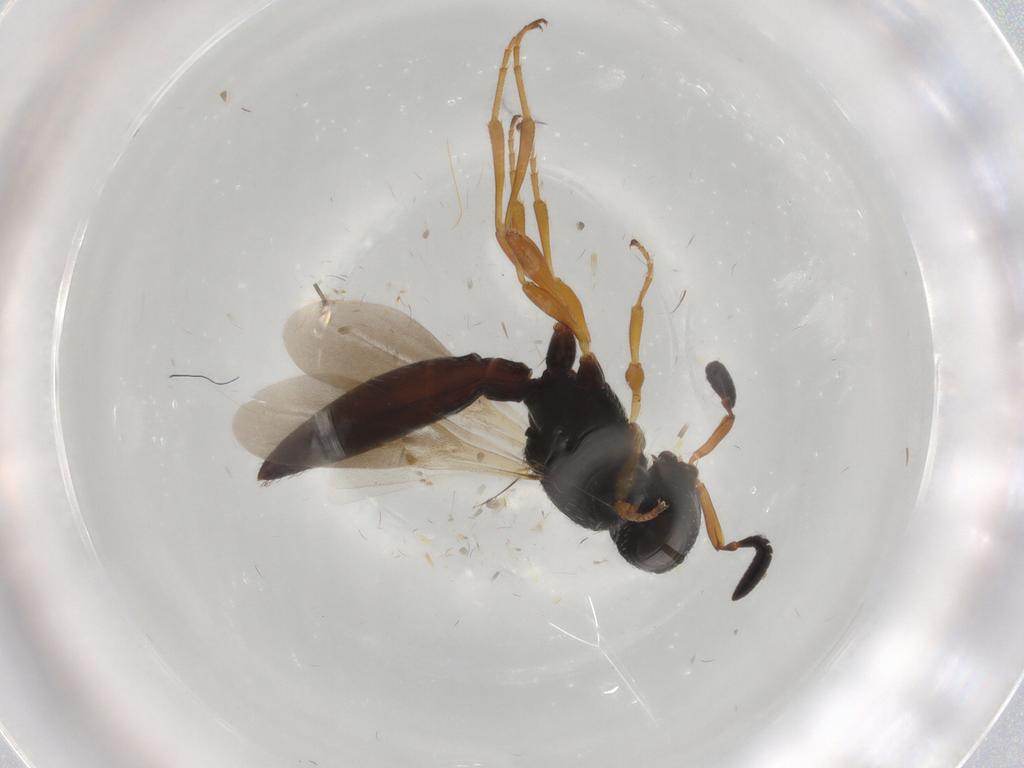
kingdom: Animalia
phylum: Arthropoda
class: Insecta
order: Hymenoptera
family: Scelionidae
